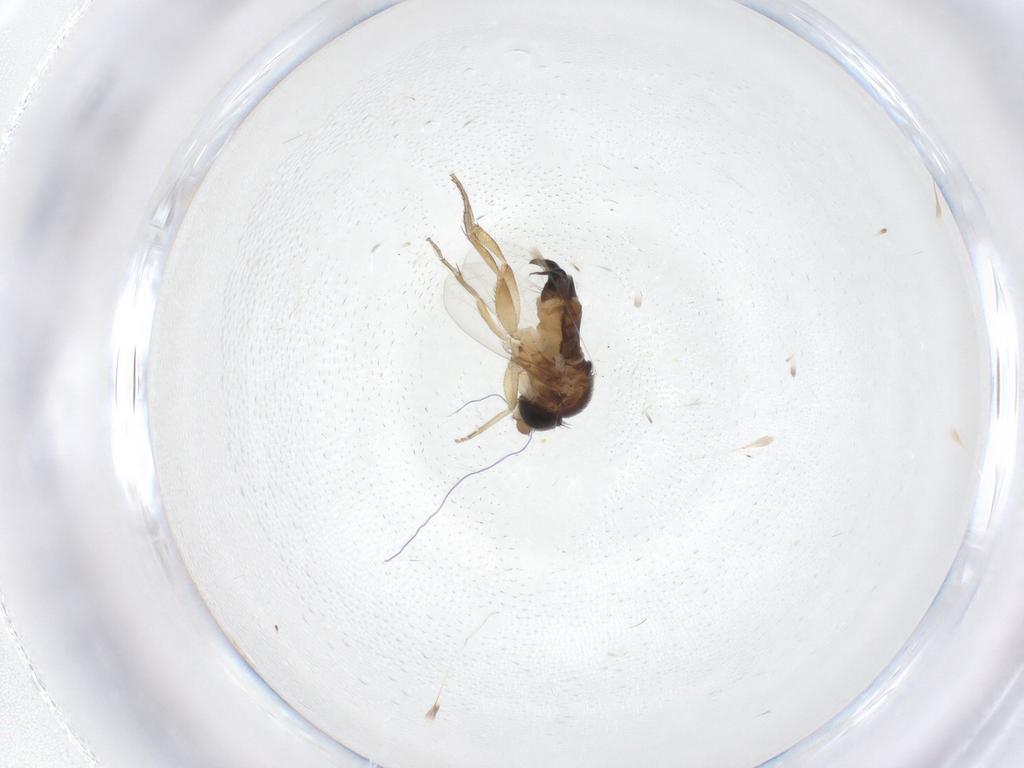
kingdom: Animalia
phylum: Arthropoda
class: Insecta
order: Diptera
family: Phoridae
